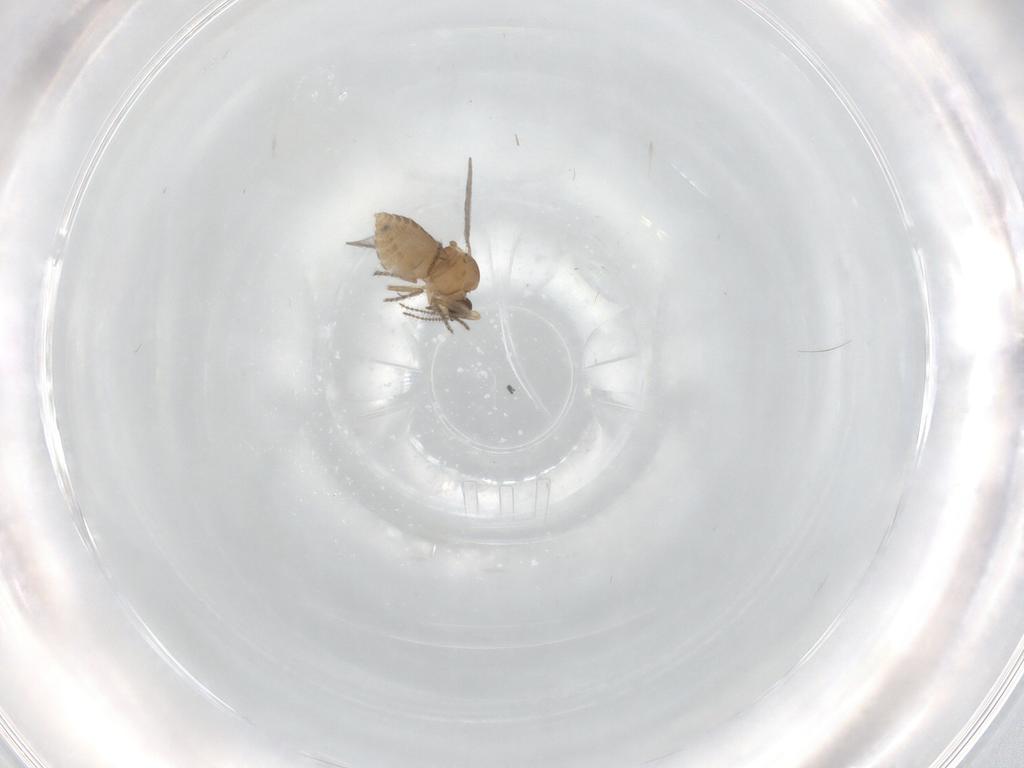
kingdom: Animalia
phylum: Arthropoda
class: Insecta
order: Diptera
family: Ceratopogonidae
